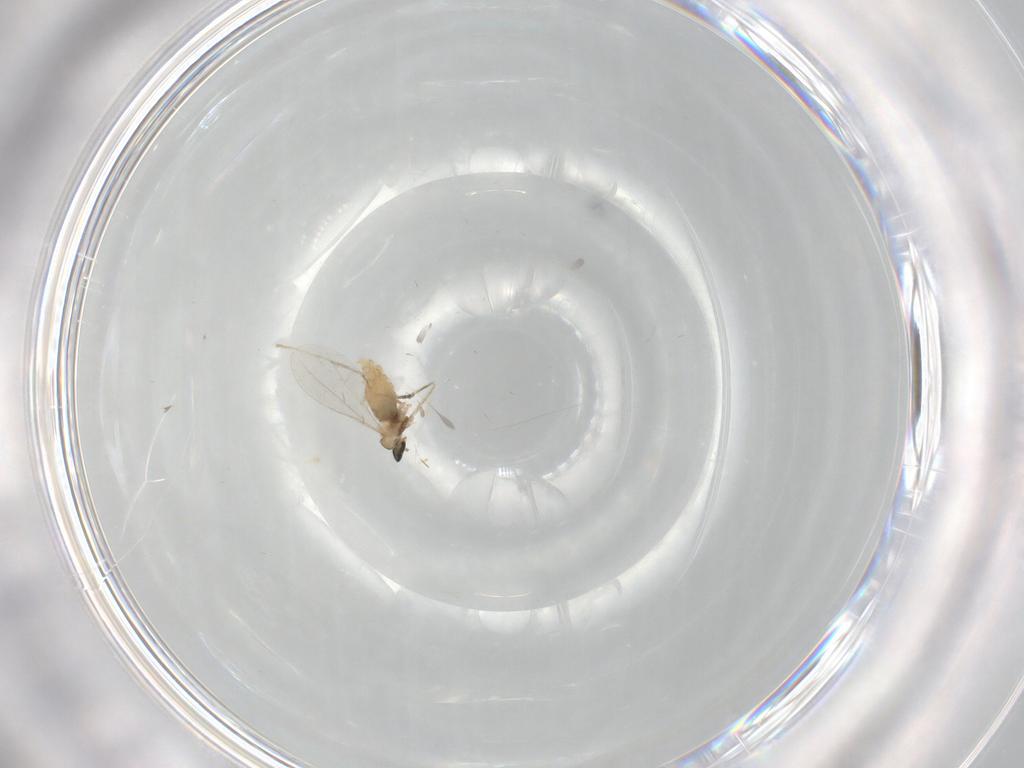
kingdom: Animalia
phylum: Arthropoda
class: Insecta
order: Diptera
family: Cecidomyiidae
